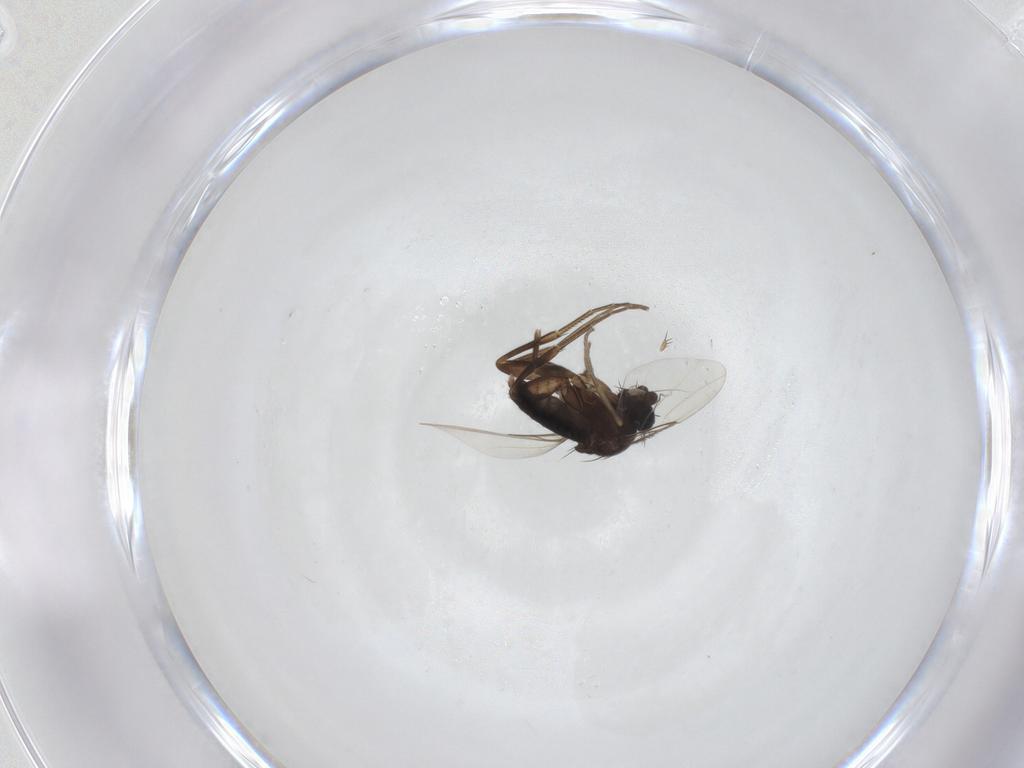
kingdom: Animalia
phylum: Arthropoda
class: Insecta
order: Diptera
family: Phoridae
